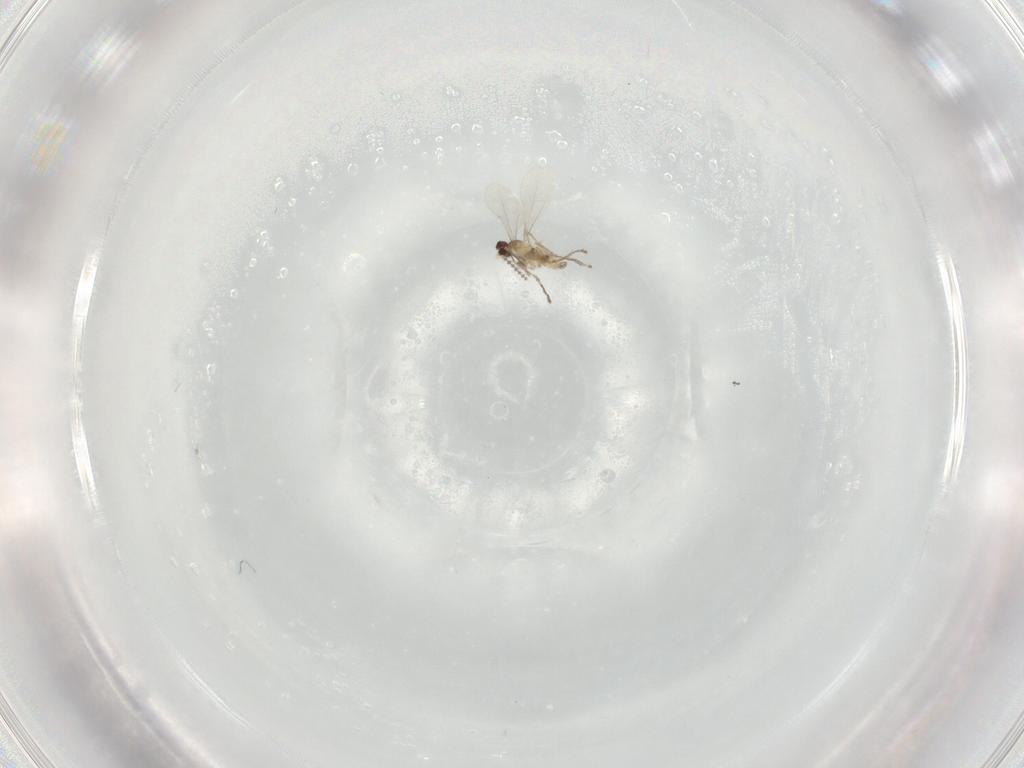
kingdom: Animalia
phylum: Arthropoda
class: Insecta
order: Diptera
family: Cecidomyiidae
